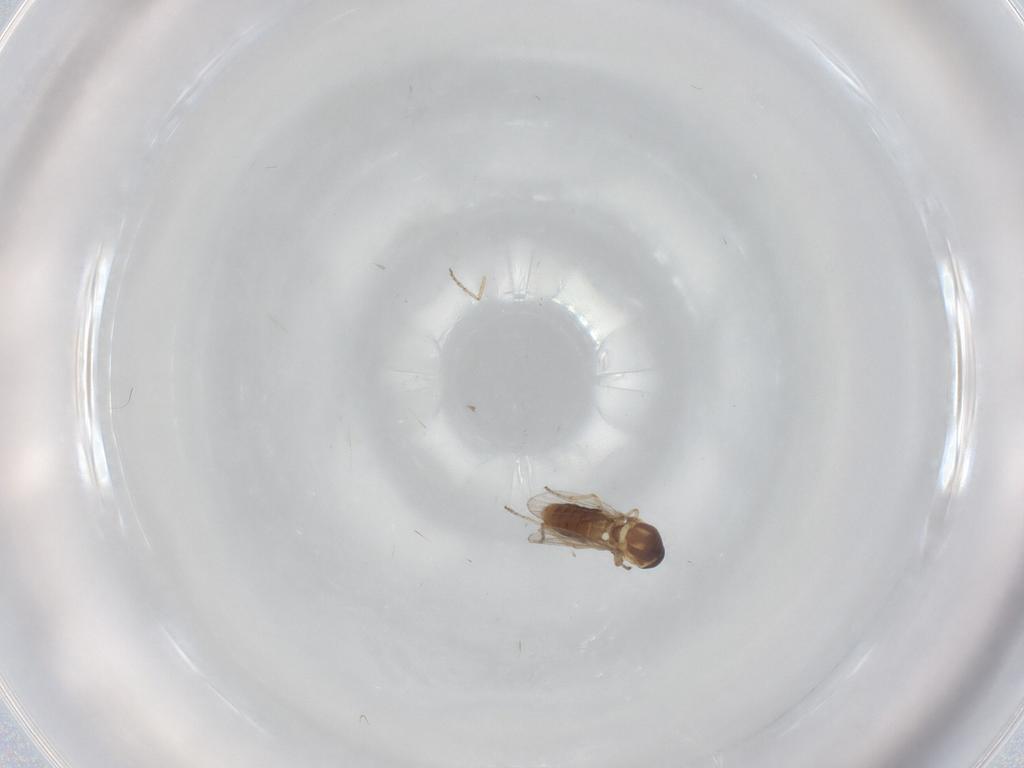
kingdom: Animalia
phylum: Arthropoda
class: Insecta
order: Diptera
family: Ceratopogonidae
